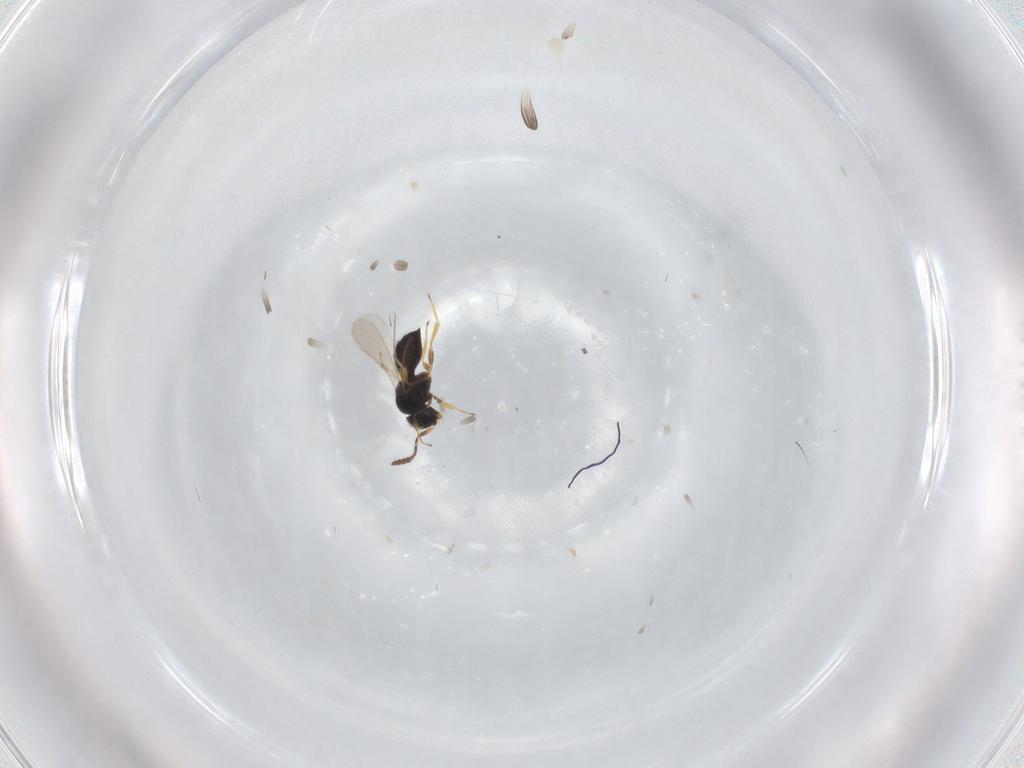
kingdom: Animalia
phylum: Arthropoda
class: Insecta
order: Hymenoptera
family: Scelionidae
